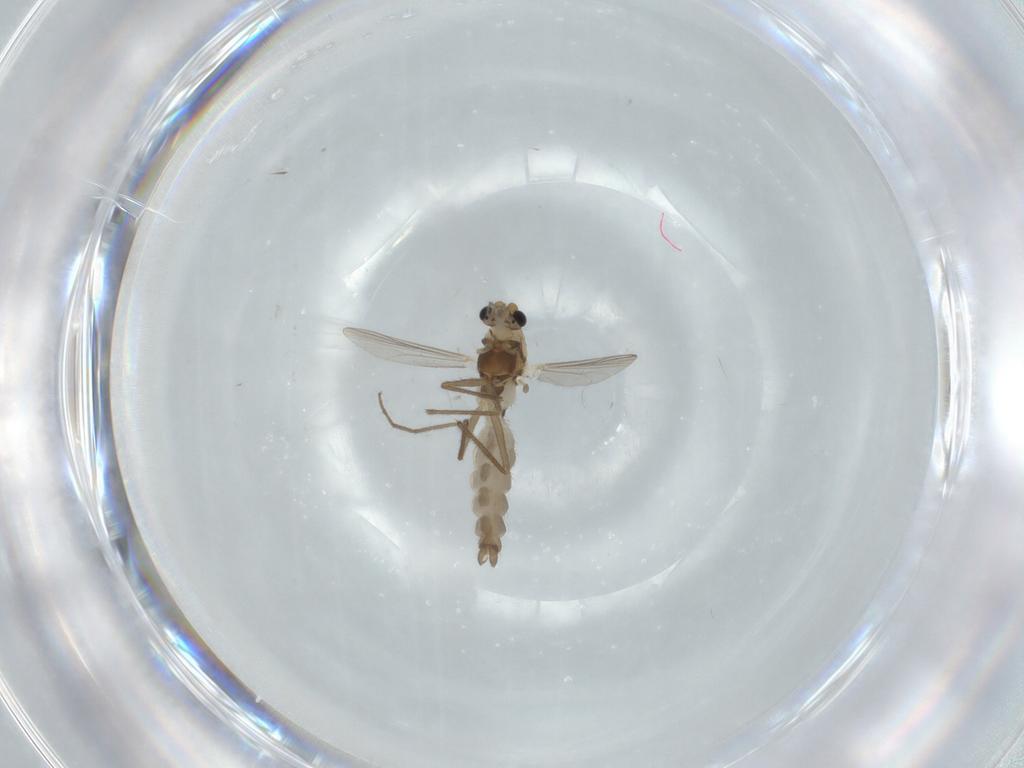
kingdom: Animalia
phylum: Arthropoda
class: Insecta
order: Diptera
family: Chironomidae
